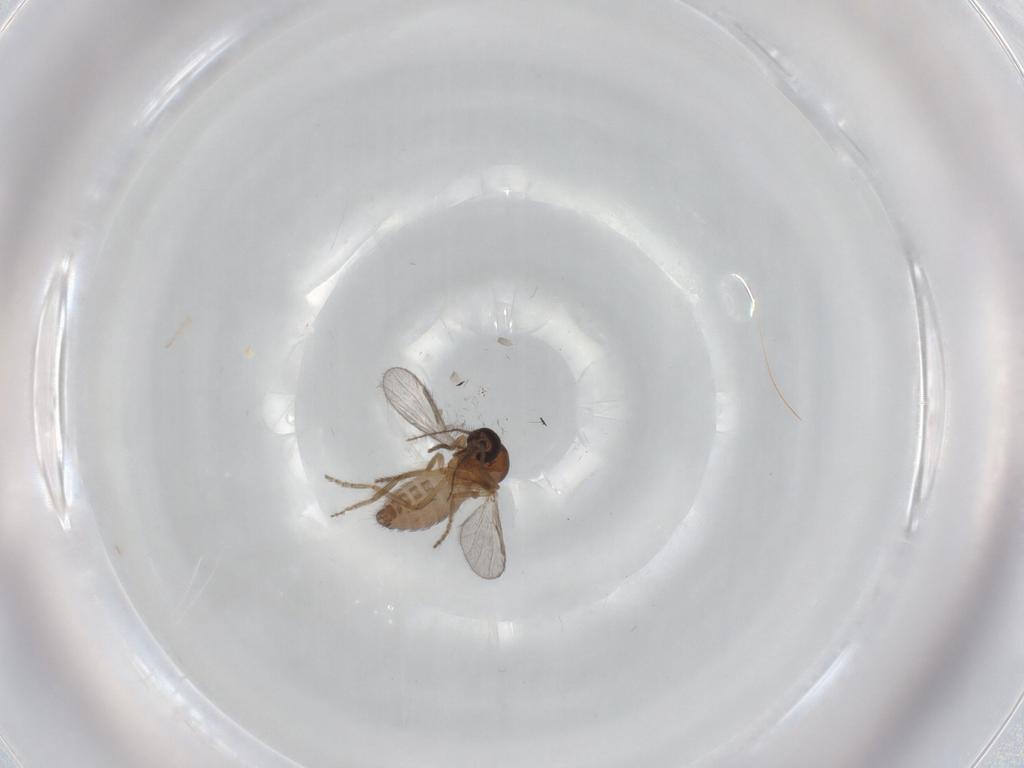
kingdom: Animalia
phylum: Arthropoda
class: Insecta
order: Diptera
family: Ceratopogonidae
